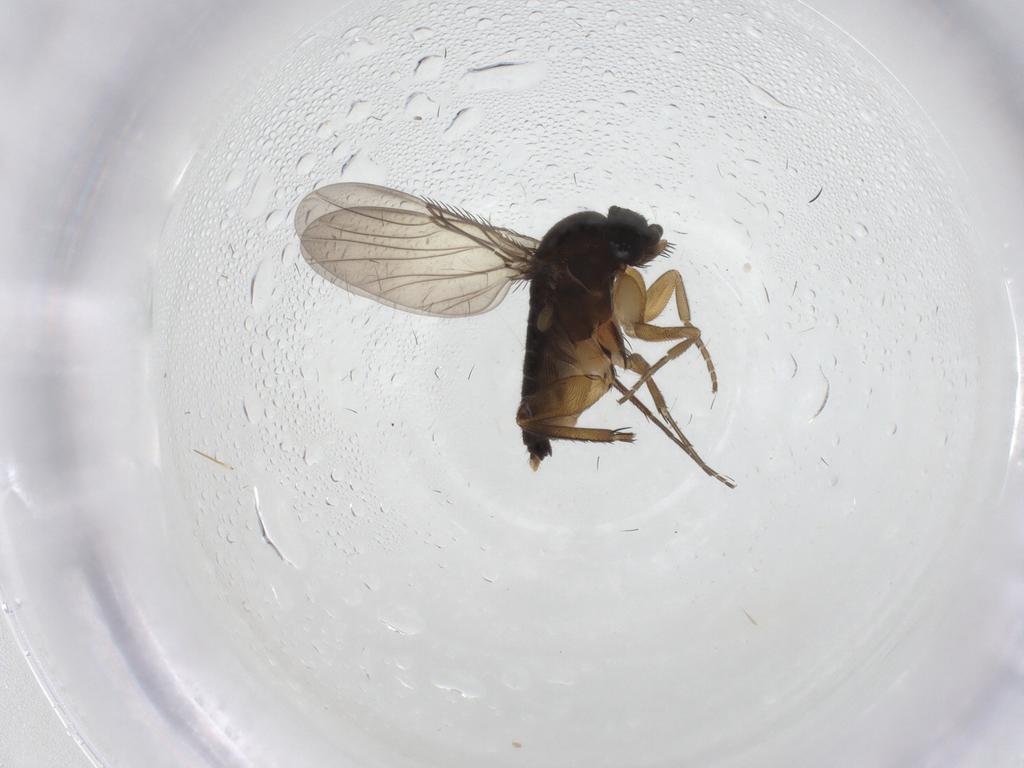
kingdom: Animalia
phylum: Arthropoda
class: Insecta
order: Diptera
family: Phoridae
